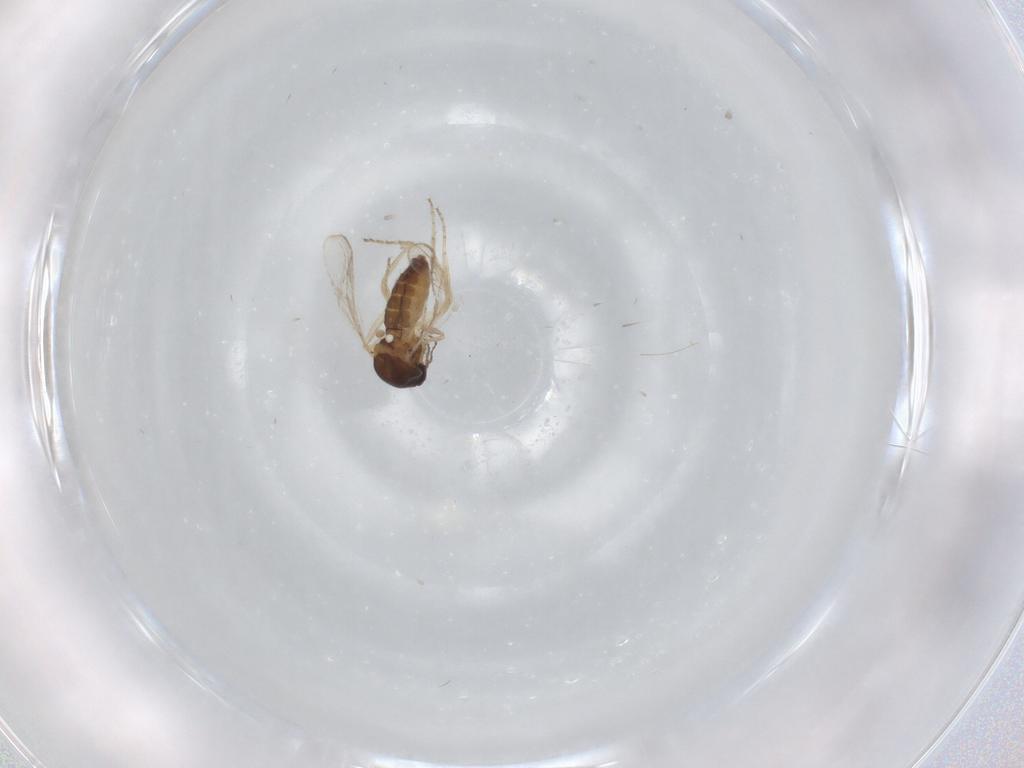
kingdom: Animalia
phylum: Arthropoda
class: Insecta
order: Diptera
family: Ceratopogonidae
